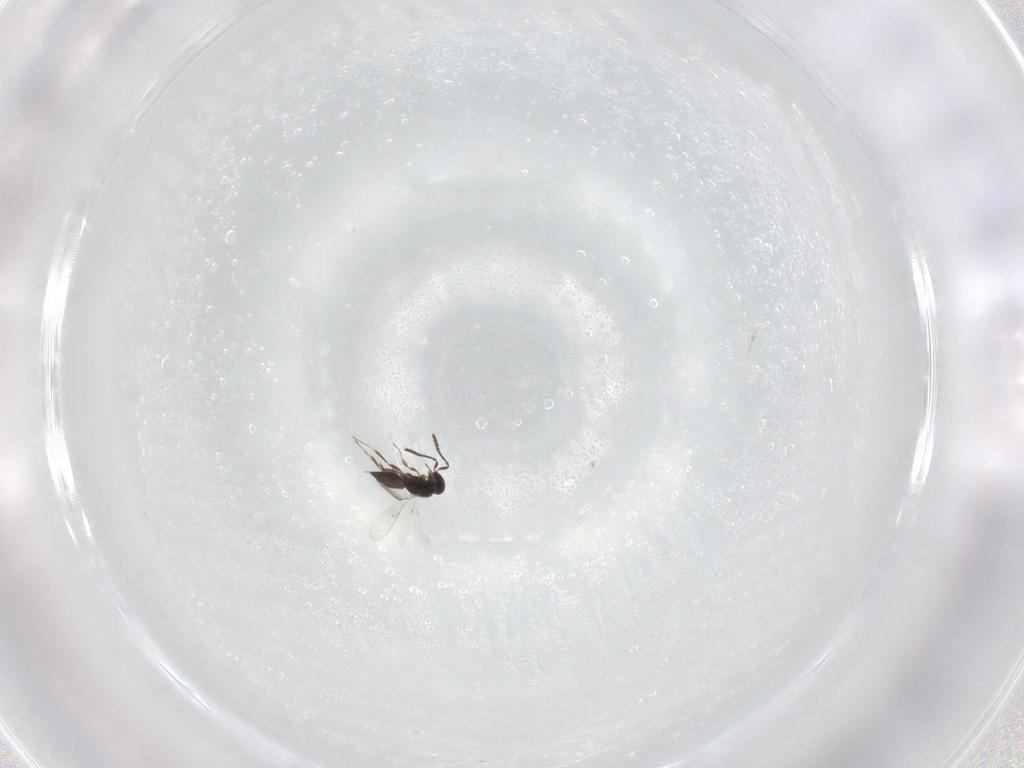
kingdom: Animalia
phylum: Arthropoda
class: Insecta
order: Hymenoptera
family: Scelionidae
